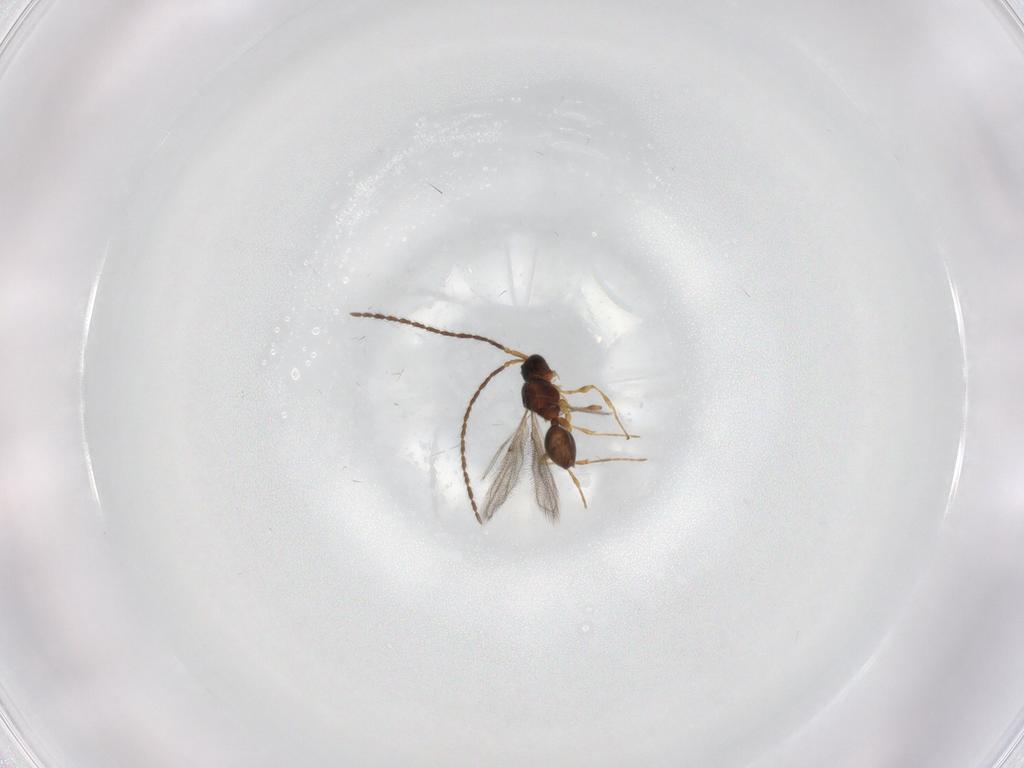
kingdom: Animalia
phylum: Arthropoda
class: Insecta
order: Hymenoptera
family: Diapriidae
